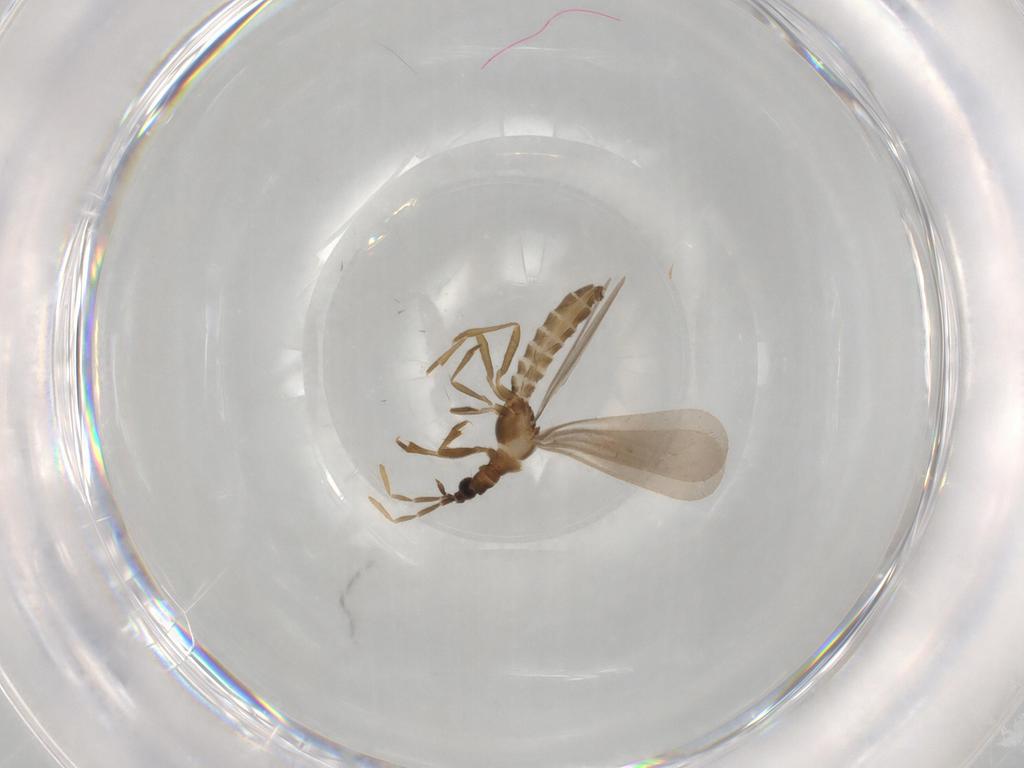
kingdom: Animalia
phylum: Arthropoda
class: Insecta
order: Hemiptera
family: Enicocephalidae
